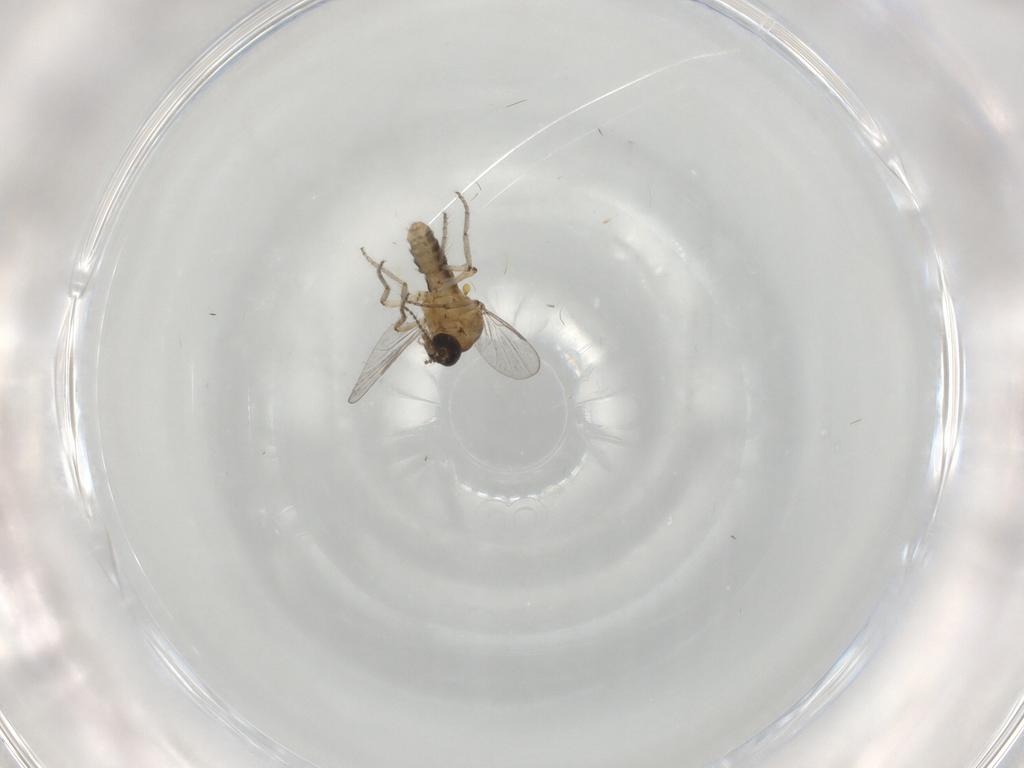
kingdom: Animalia
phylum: Arthropoda
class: Insecta
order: Diptera
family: Ceratopogonidae
